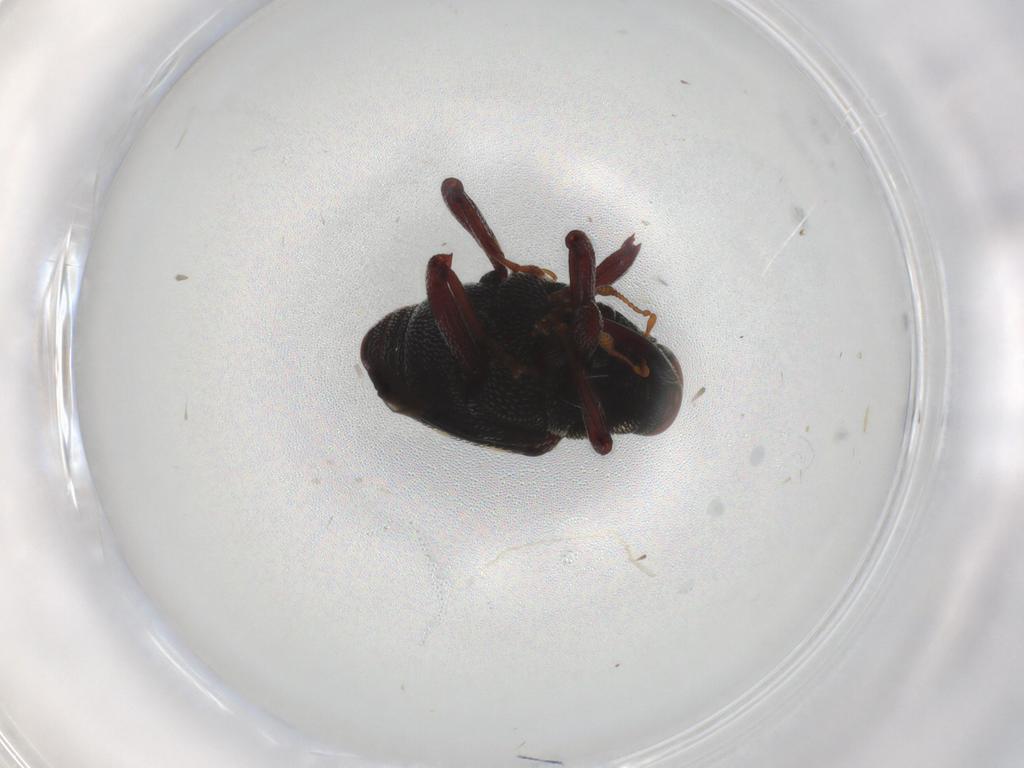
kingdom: Animalia
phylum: Arthropoda
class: Insecta
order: Coleoptera
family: Curculionidae
